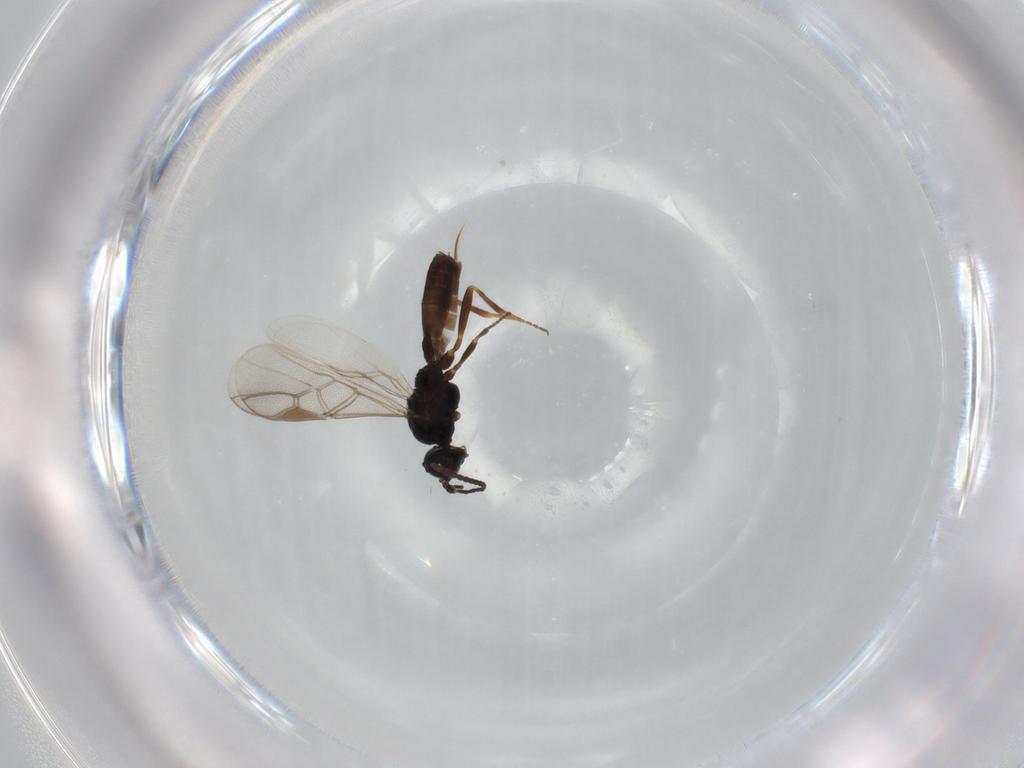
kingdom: Animalia
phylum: Arthropoda
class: Insecta
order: Hymenoptera
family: Braconidae
